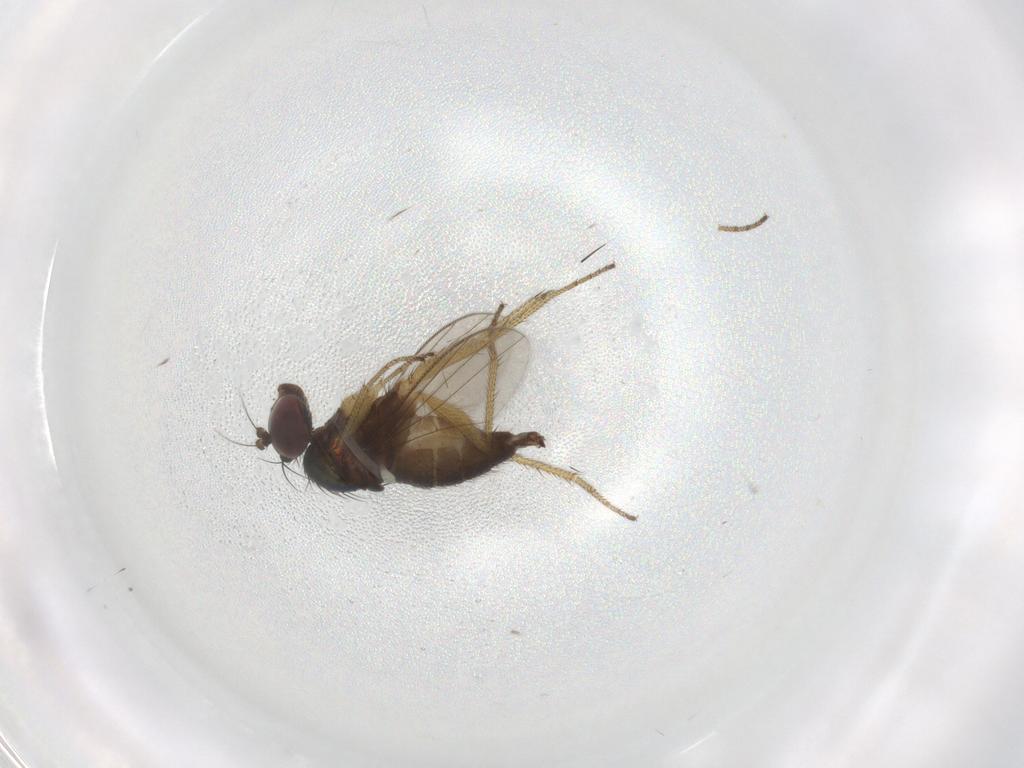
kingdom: Animalia
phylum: Arthropoda
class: Insecta
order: Diptera
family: Dolichopodidae
